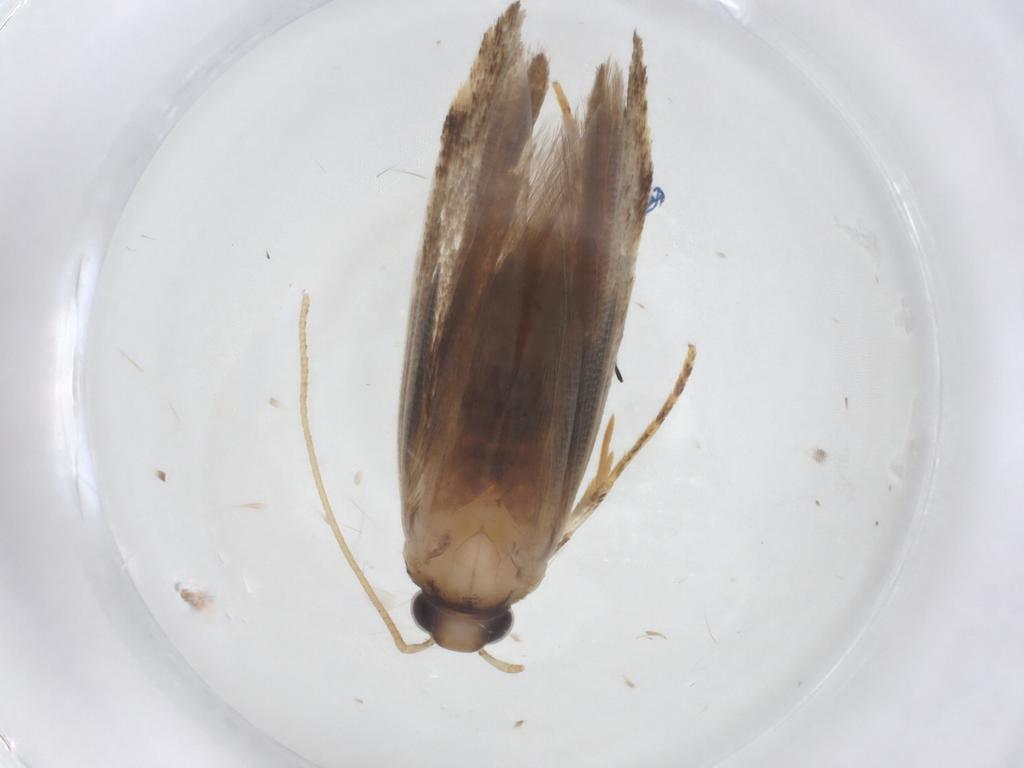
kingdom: Animalia
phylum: Arthropoda
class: Insecta
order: Lepidoptera
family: Gelechiidae
